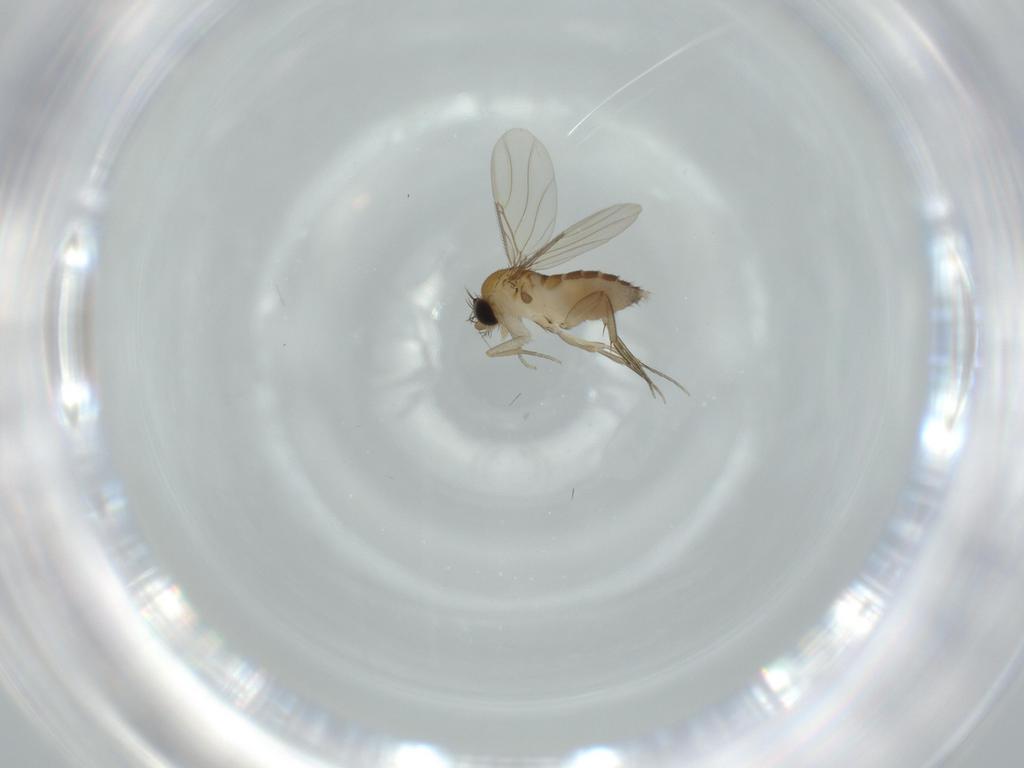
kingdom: Animalia
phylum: Arthropoda
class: Insecta
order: Diptera
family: Phoridae
